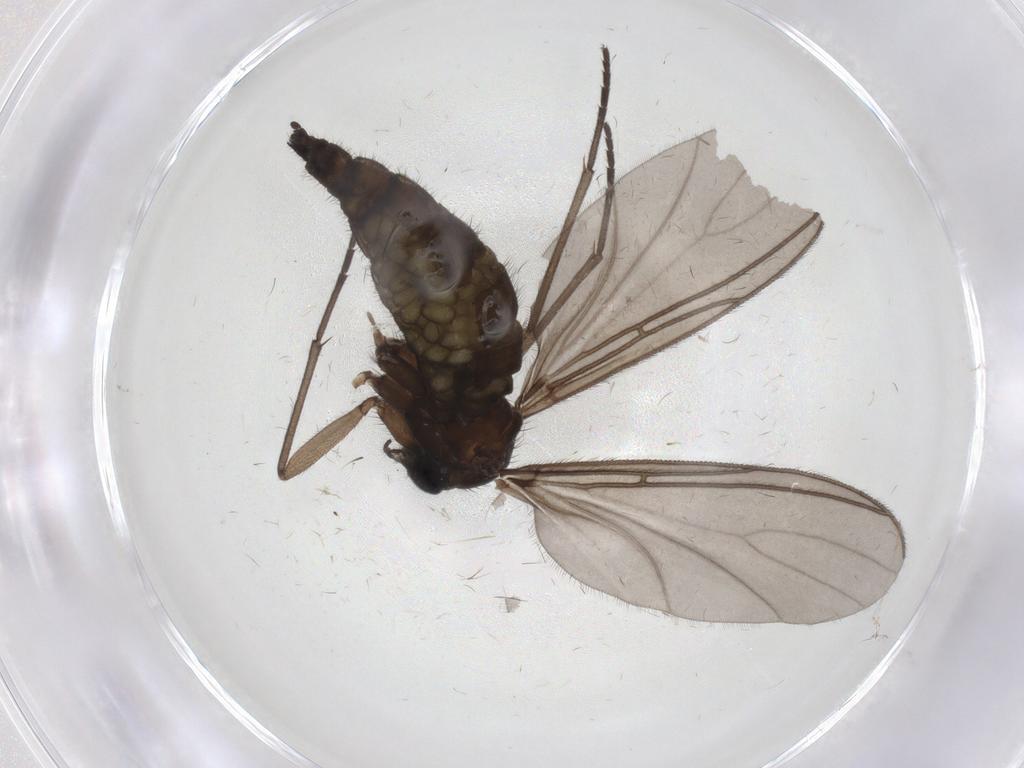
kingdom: Animalia
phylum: Arthropoda
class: Insecta
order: Diptera
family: Sciaridae
